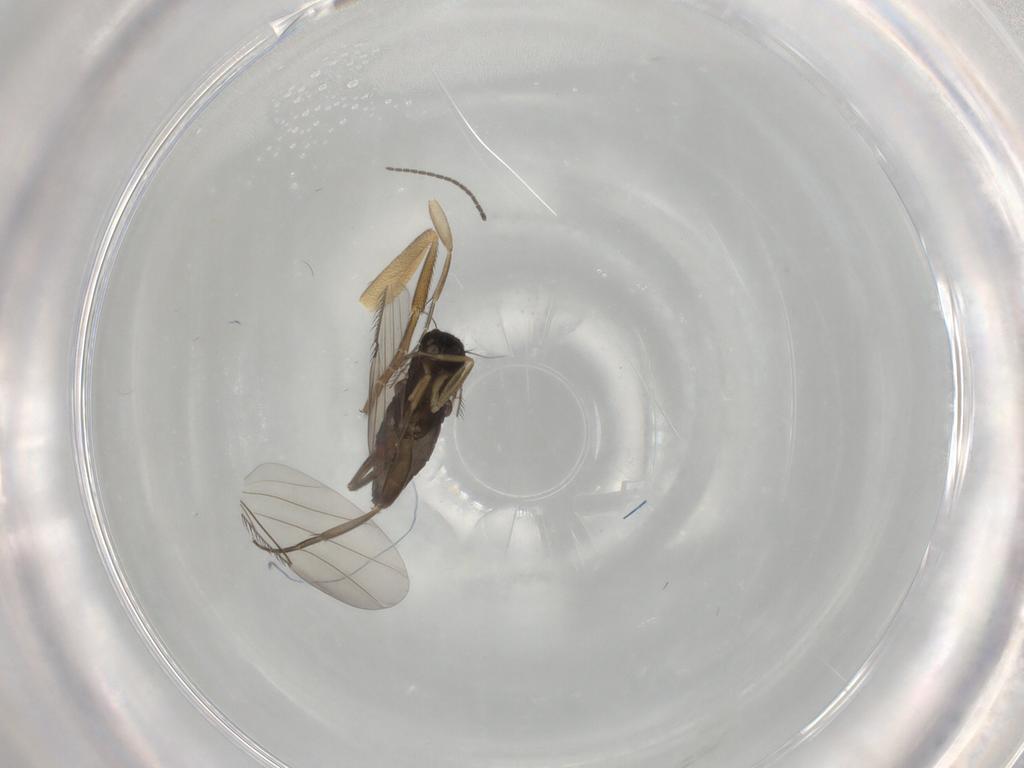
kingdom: Animalia
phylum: Arthropoda
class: Insecta
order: Diptera
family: Phoridae
